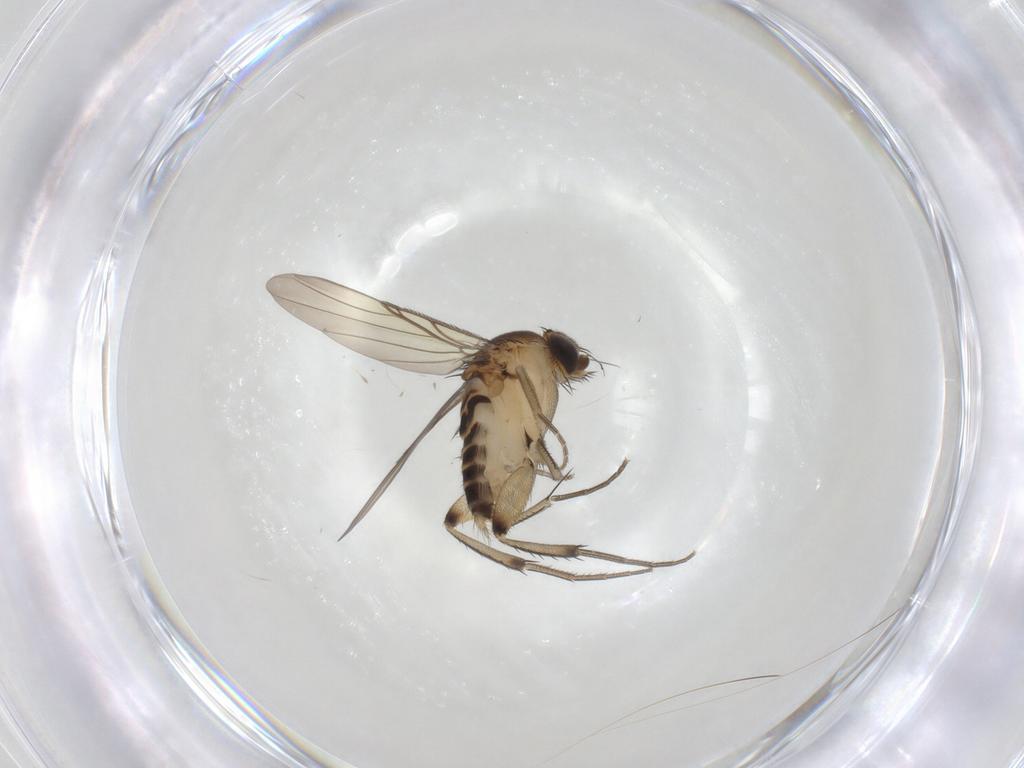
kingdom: Animalia
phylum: Arthropoda
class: Insecta
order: Diptera
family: Phoridae
